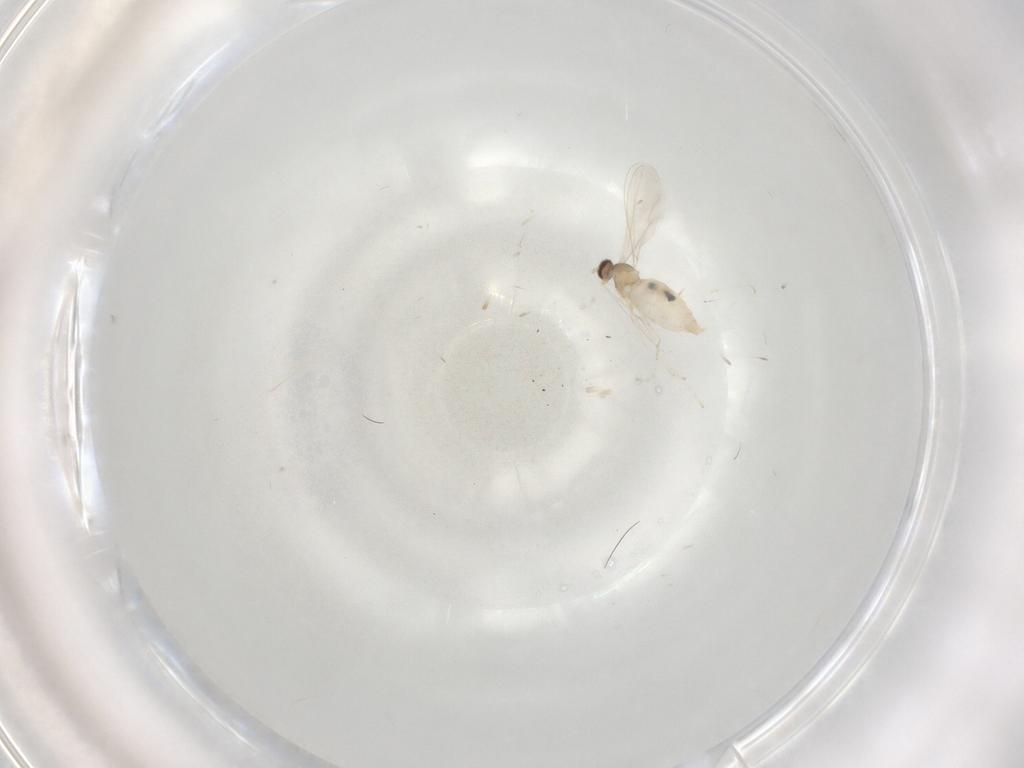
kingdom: Animalia
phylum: Arthropoda
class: Insecta
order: Diptera
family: Cecidomyiidae
